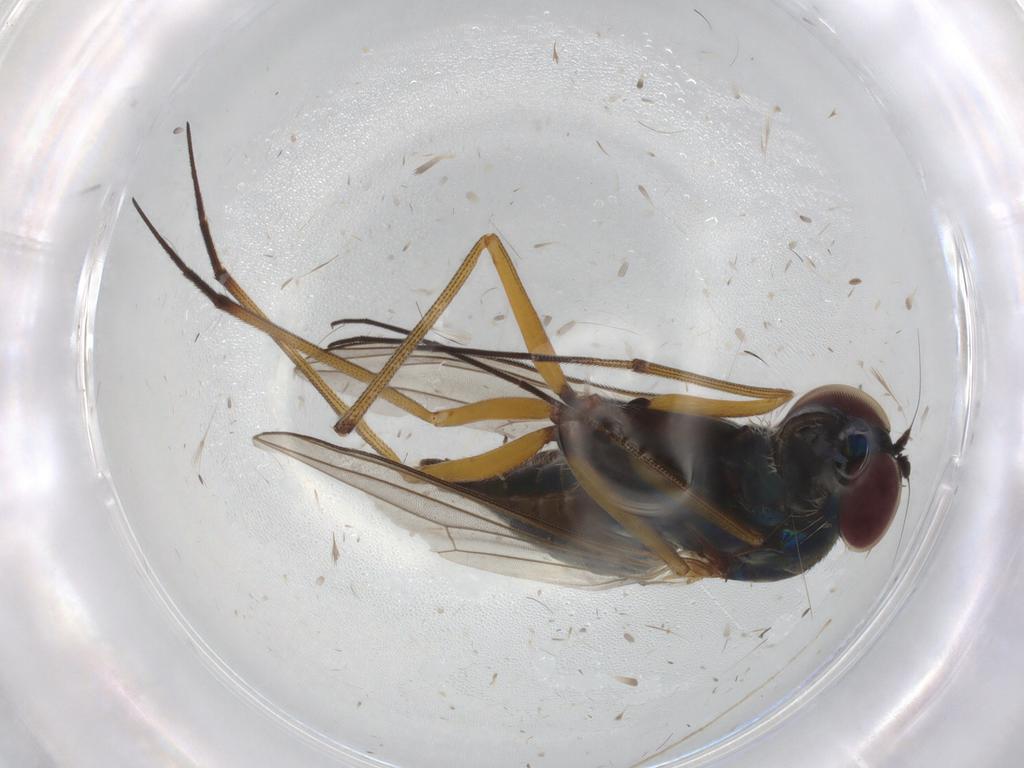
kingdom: Animalia
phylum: Arthropoda
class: Insecta
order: Diptera
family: Dolichopodidae
